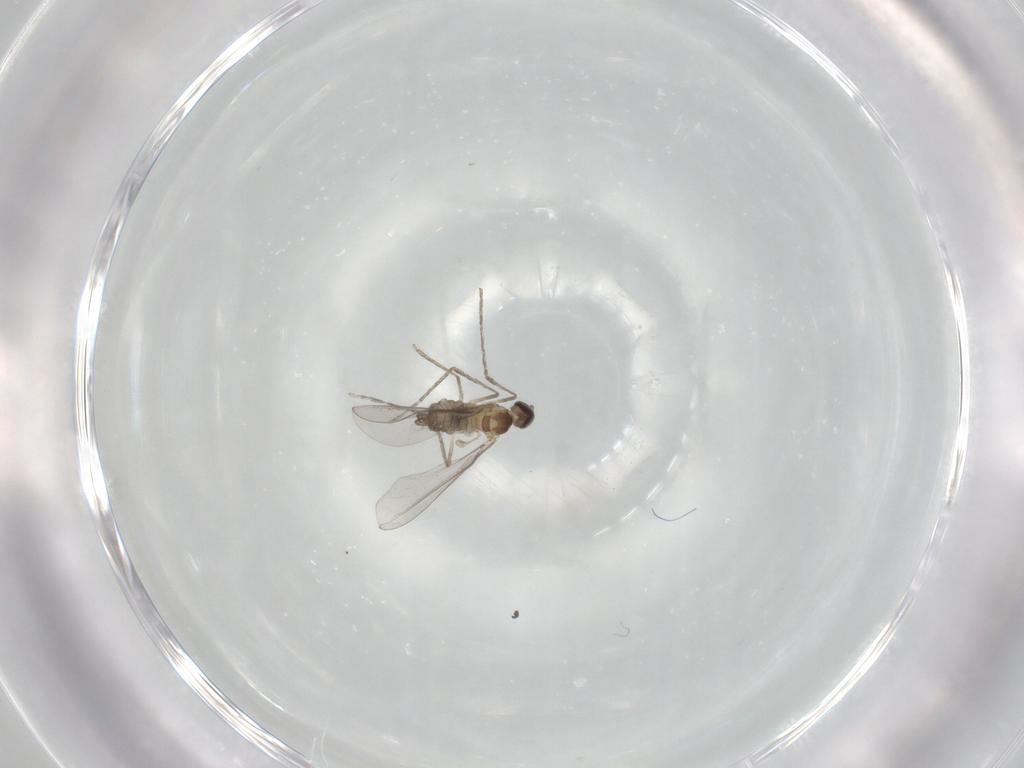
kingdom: Animalia
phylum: Arthropoda
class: Insecta
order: Diptera
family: Cecidomyiidae
